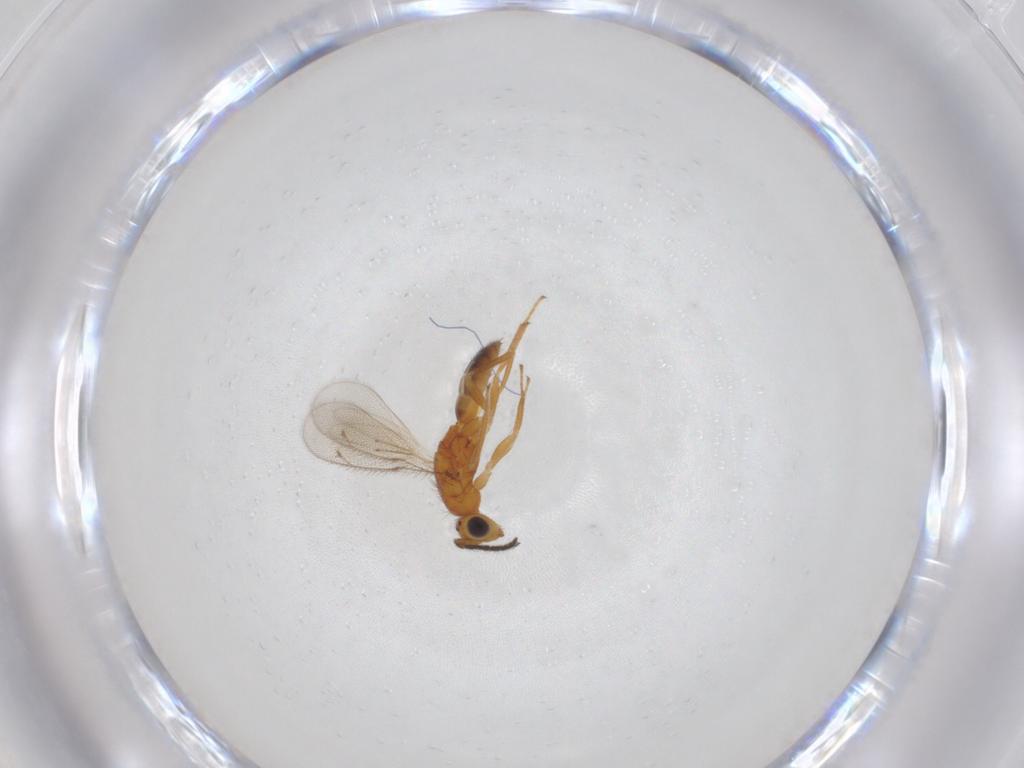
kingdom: Animalia
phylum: Arthropoda
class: Insecta
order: Hymenoptera
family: Eulophidae
